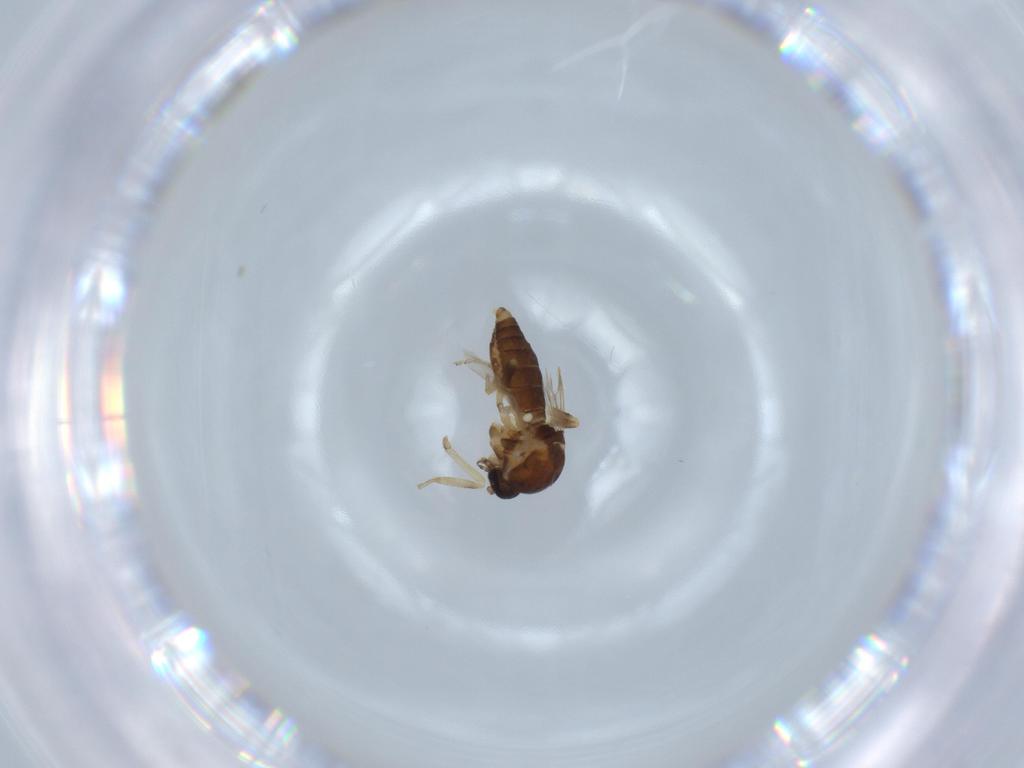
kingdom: Animalia
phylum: Arthropoda
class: Insecta
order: Diptera
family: Ceratopogonidae
